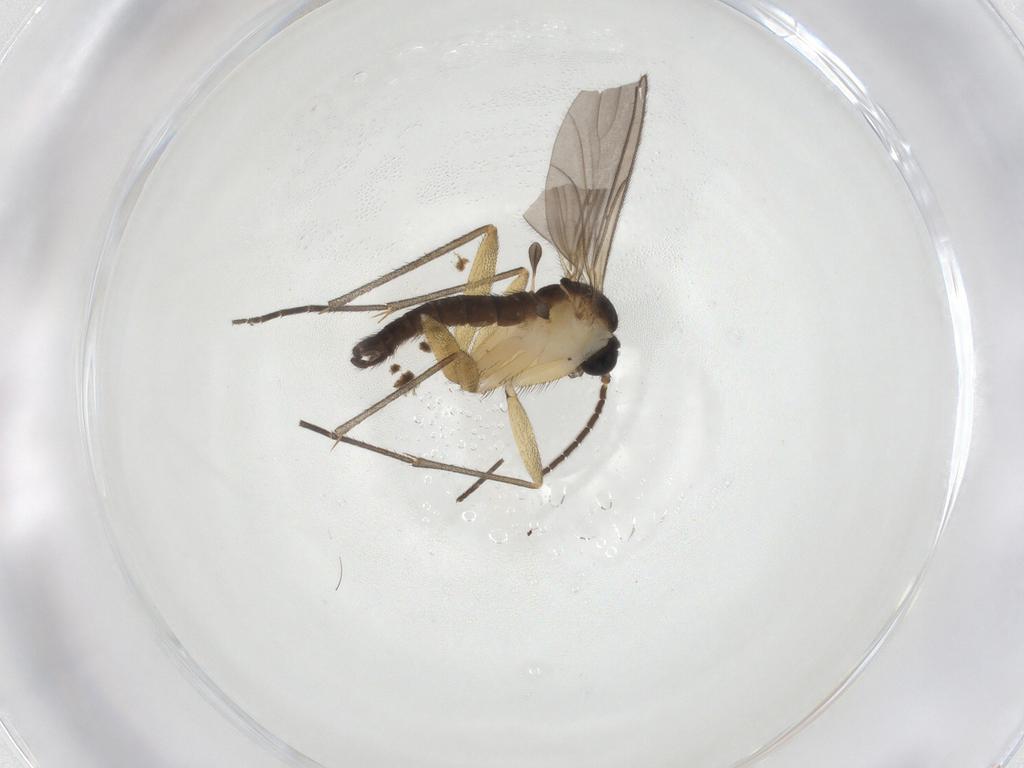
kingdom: Animalia
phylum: Arthropoda
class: Insecta
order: Diptera
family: Sciaridae
